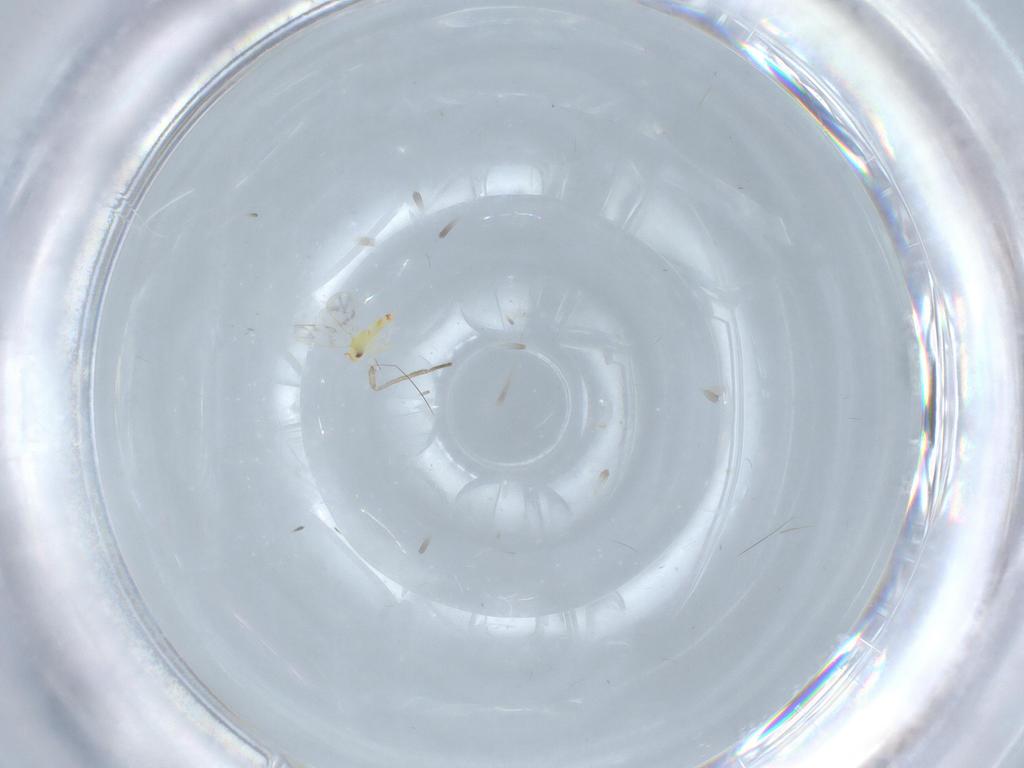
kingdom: Animalia
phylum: Arthropoda
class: Insecta
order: Hemiptera
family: Aleyrodidae
